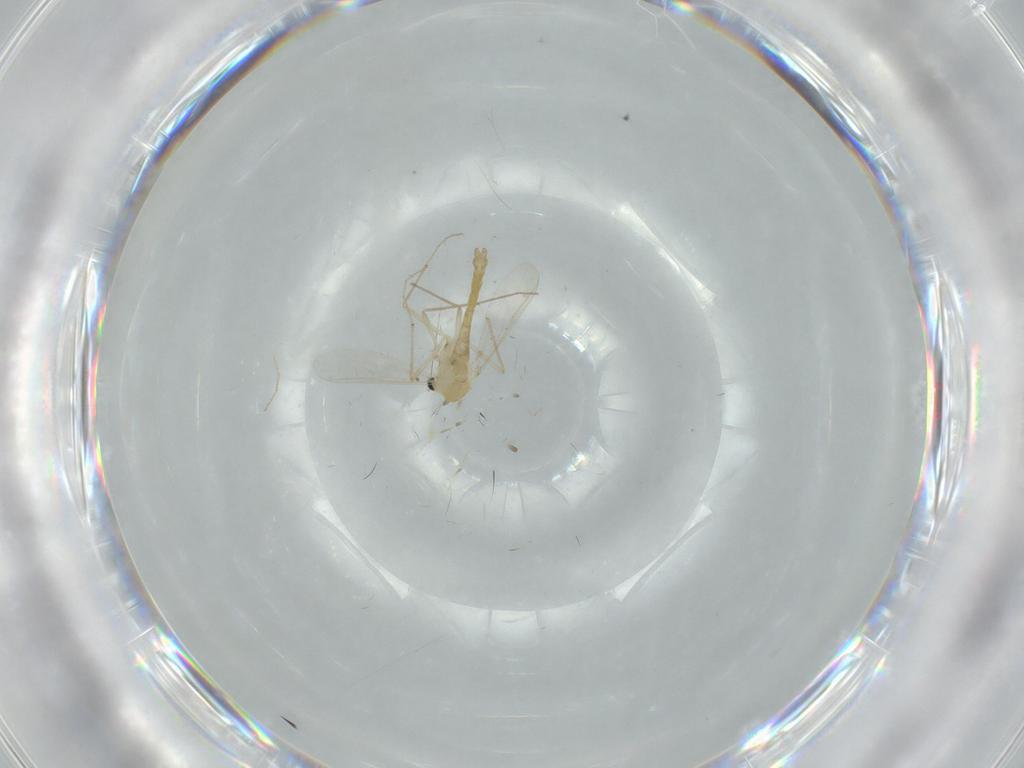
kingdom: Animalia
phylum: Arthropoda
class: Insecta
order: Diptera
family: Chironomidae
